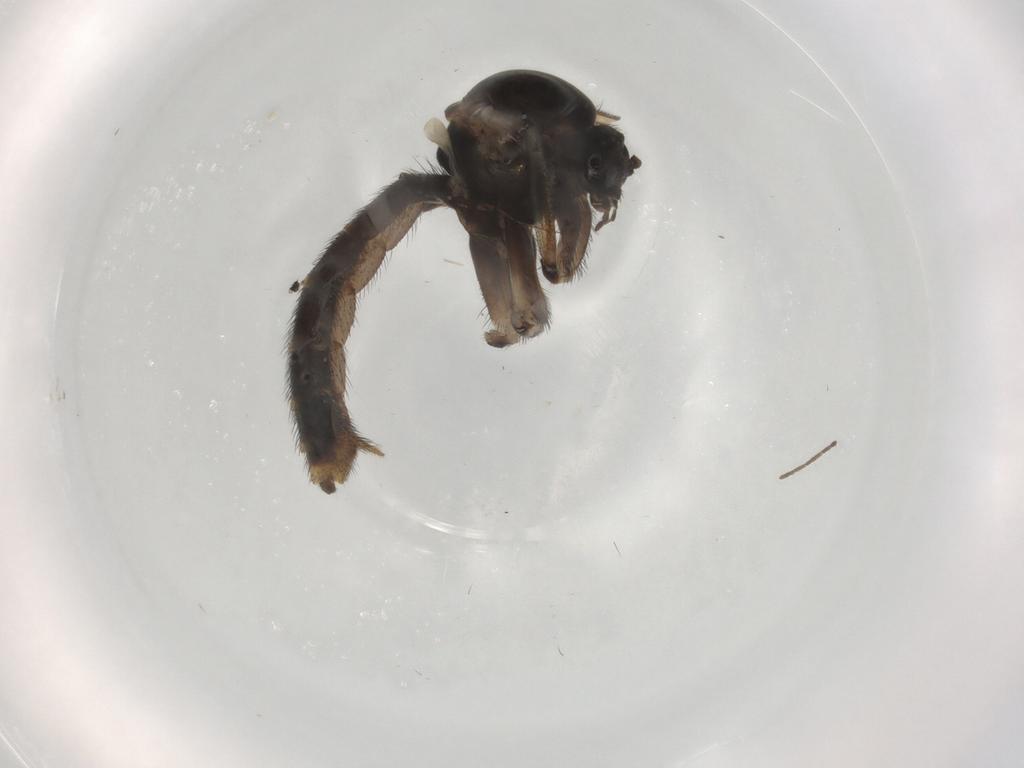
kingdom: Animalia
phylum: Arthropoda
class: Insecta
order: Diptera
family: Keroplatidae
